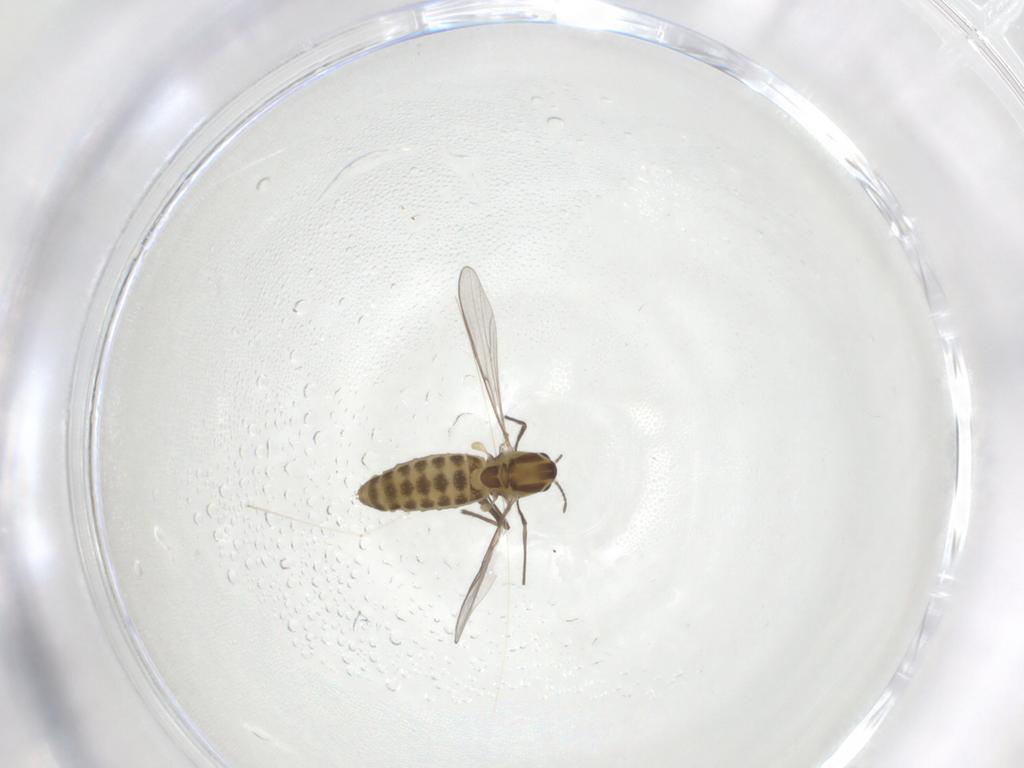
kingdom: Animalia
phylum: Arthropoda
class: Insecta
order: Diptera
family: Chironomidae
